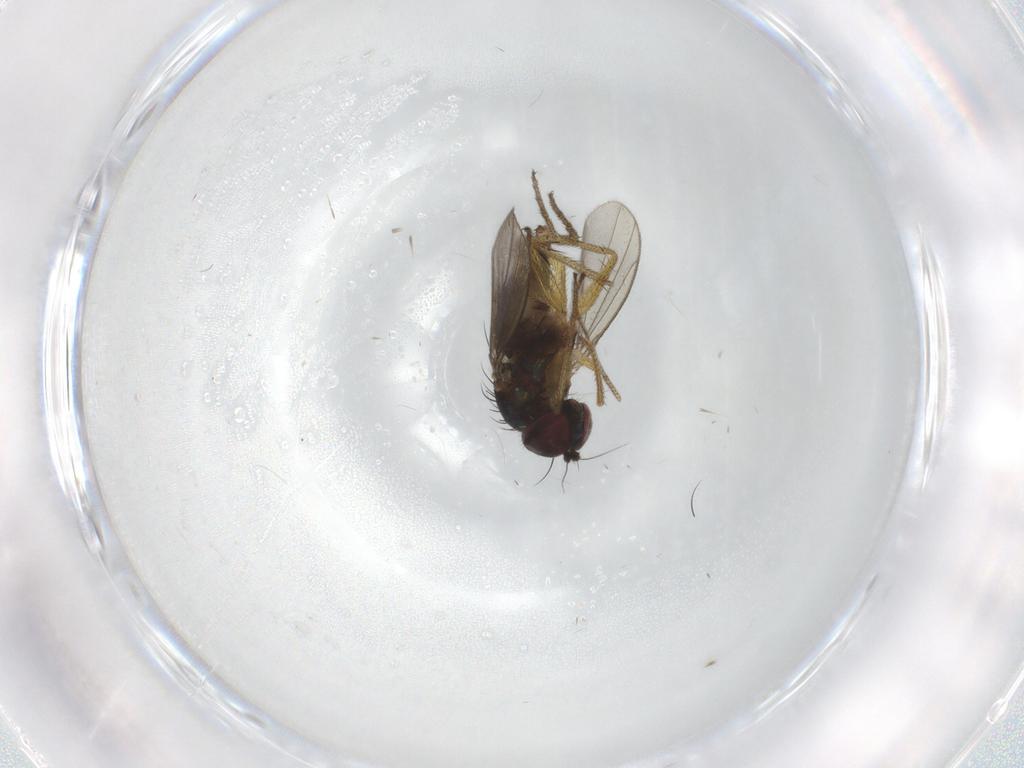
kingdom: Animalia
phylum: Arthropoda
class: Insecta
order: Diptera
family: Dolichopodidae
